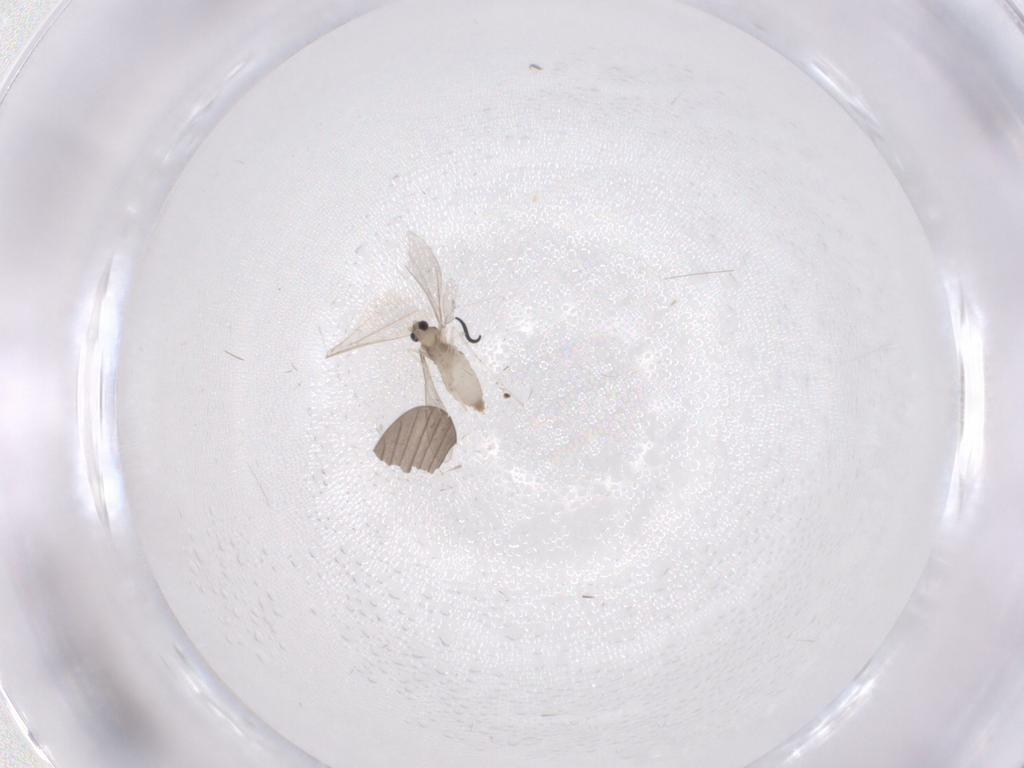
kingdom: Animalia
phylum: Arthropoda
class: Insecta
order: Diptera
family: Cecidomyiidae
